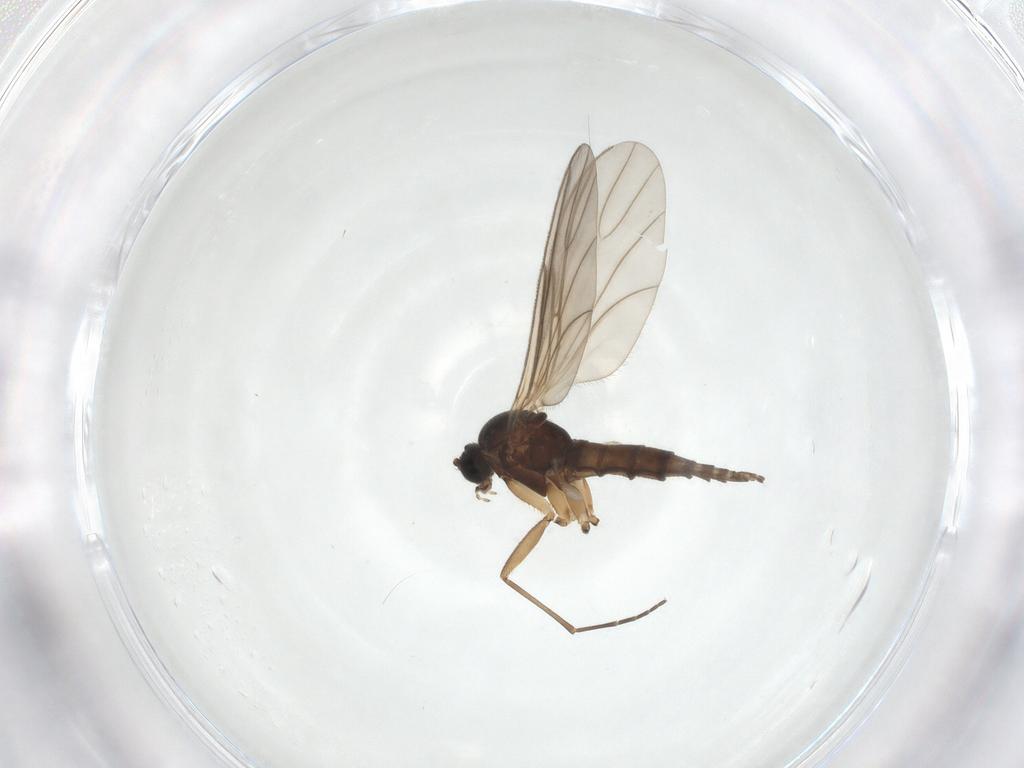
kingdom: Animalia
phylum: Arthropoda
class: Insecta
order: Diptera
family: Sciaridae
